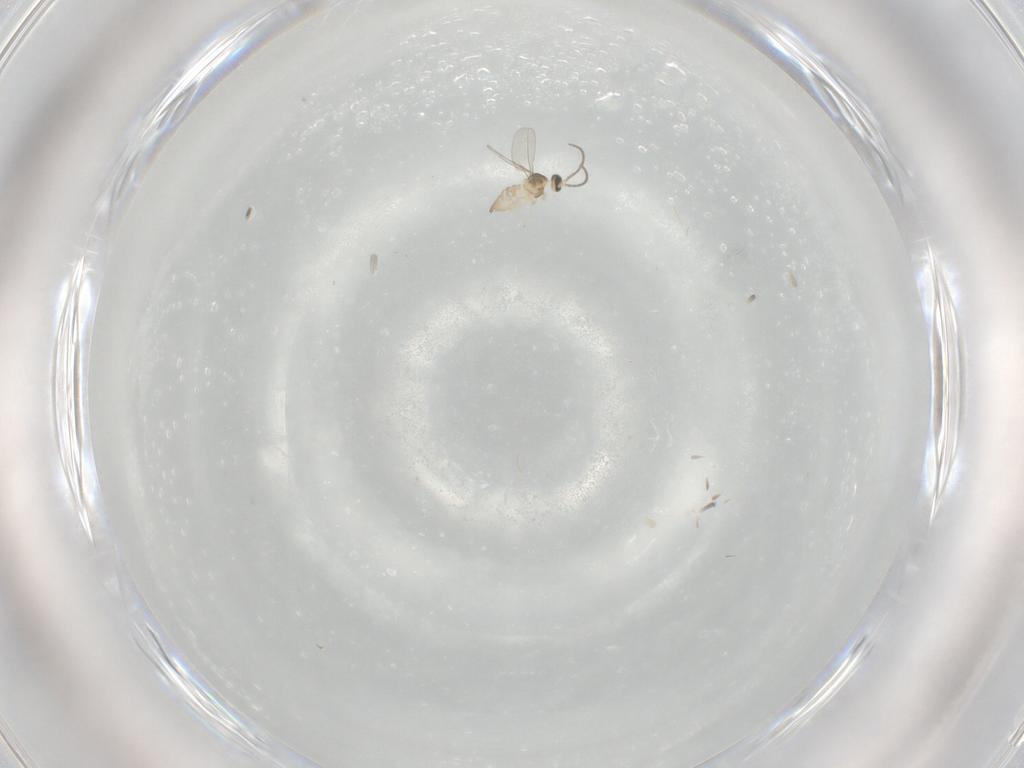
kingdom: Animalia
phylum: Arthropoda
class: Insecta
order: Diptera
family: Cecidomyiidae
